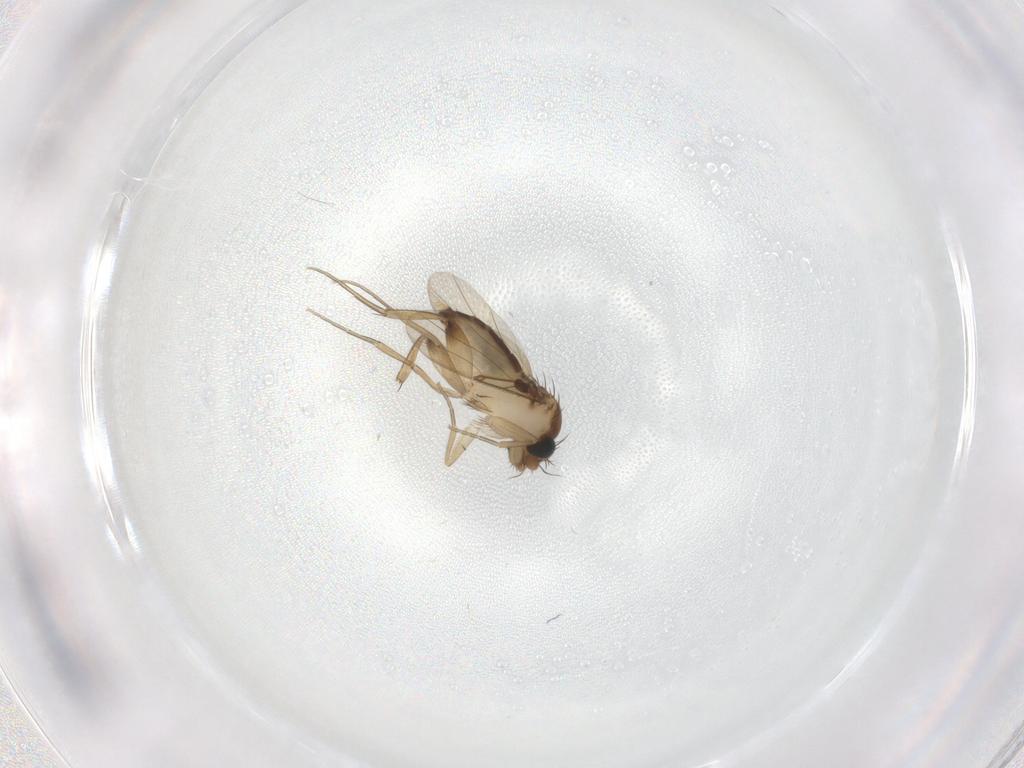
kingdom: Animalia
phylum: Arthropoda
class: Insecta
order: Diptera
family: Phoridae
